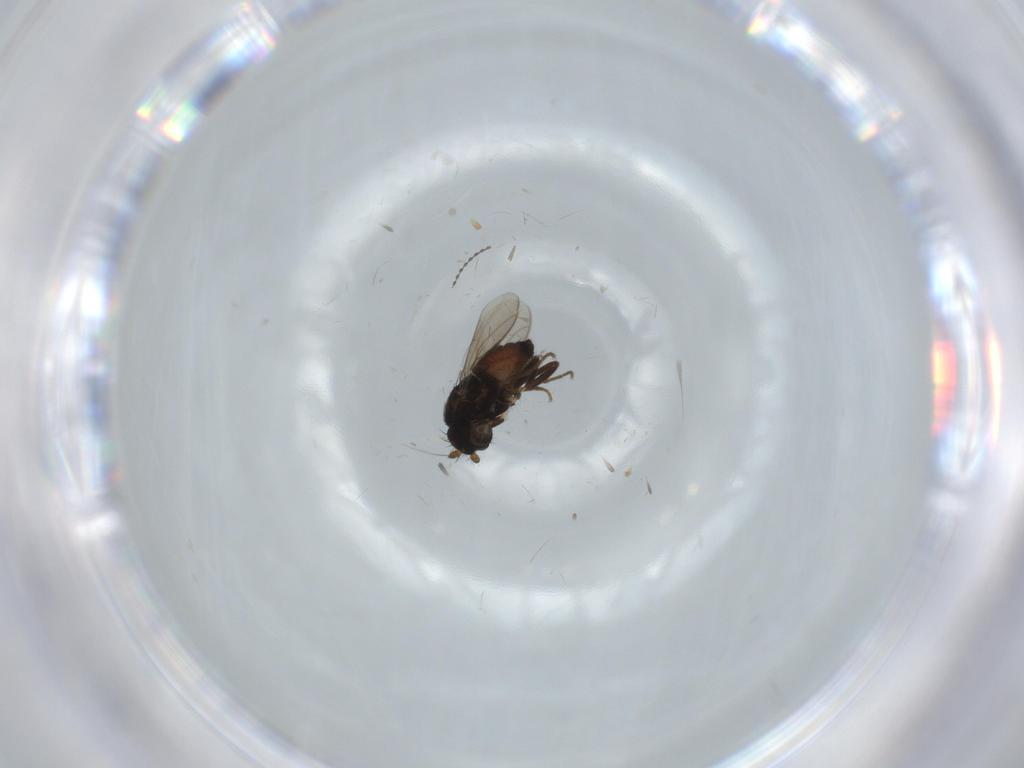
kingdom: Animalia
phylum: Arthropoda
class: Insecta
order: Diptera
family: Sphaeroceridae
